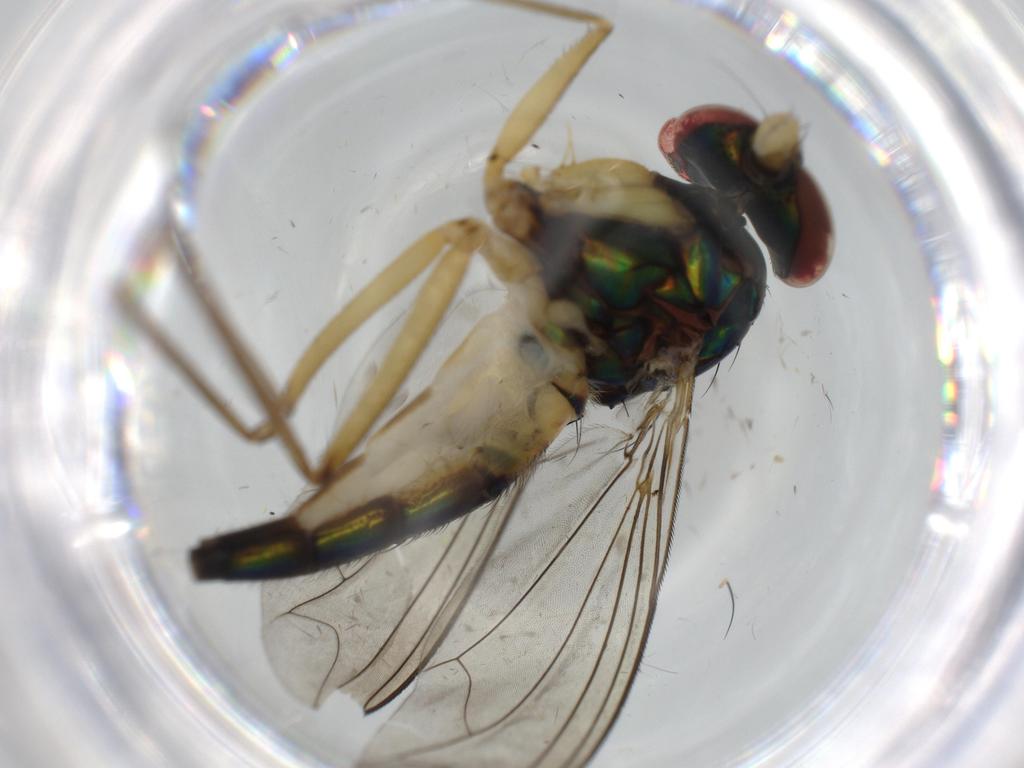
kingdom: Animalia
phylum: Arthropoda
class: Insecta
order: Diptera
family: Dolichopodidae
